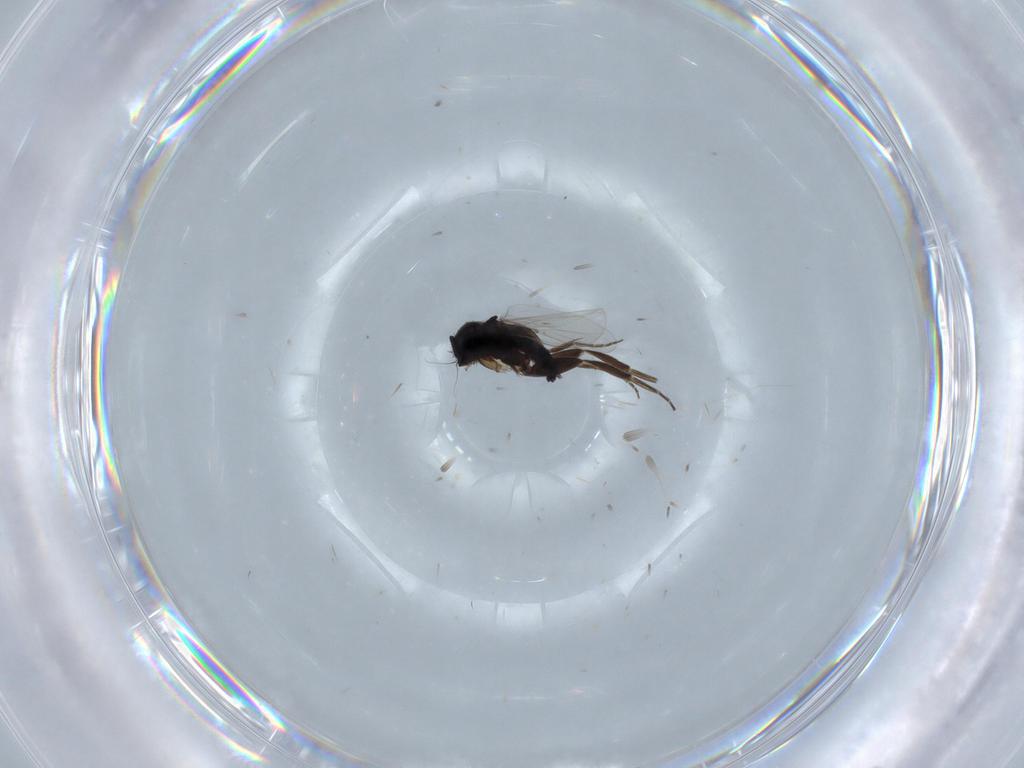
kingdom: Animalia
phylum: Arthropoda
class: Insecta
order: Diptera
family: Phoridae
